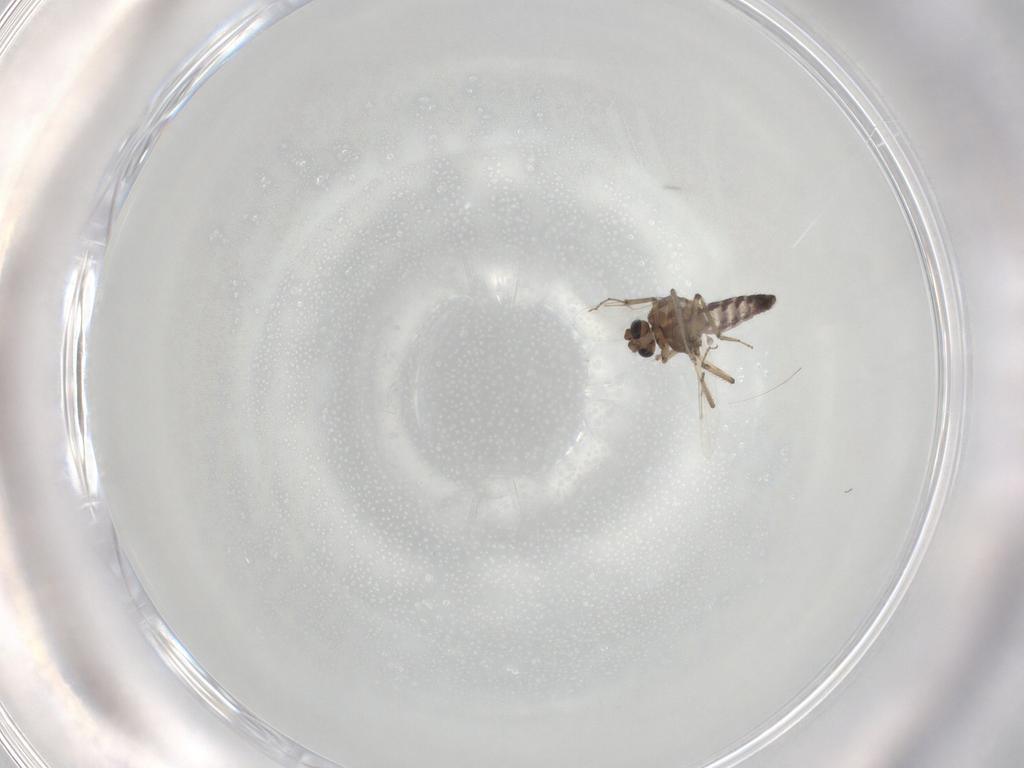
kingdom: Animalia
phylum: Arthropoda
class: Insecta
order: Diptera
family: Ceratopogonidae
